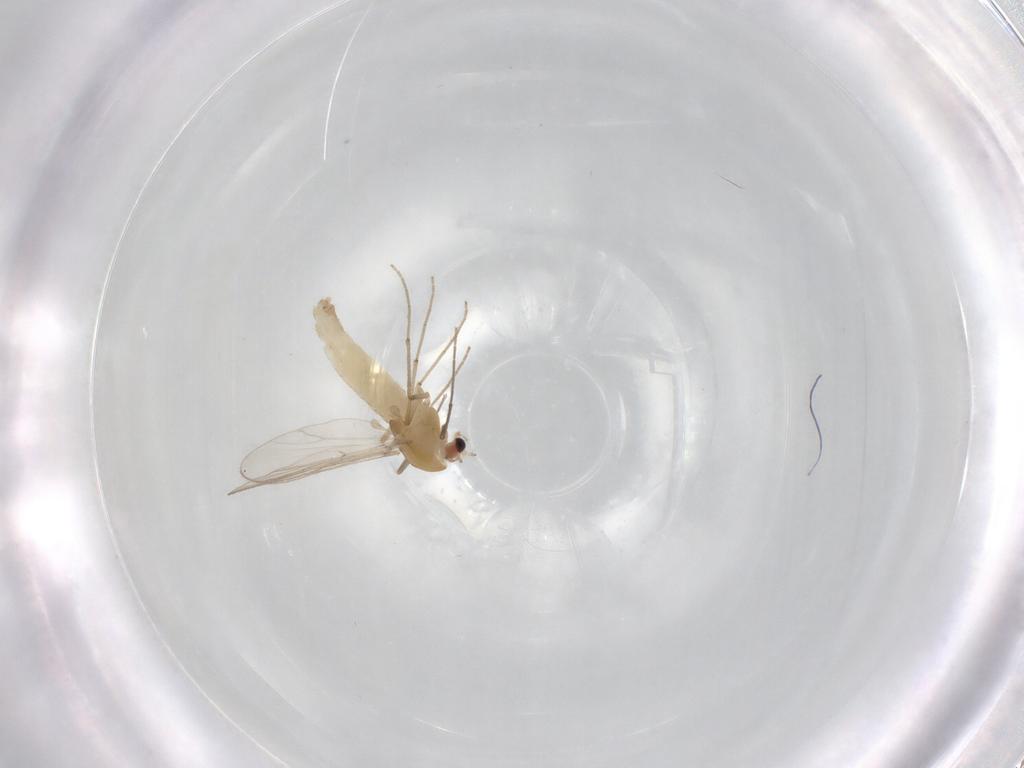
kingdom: Animalia
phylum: Arthropoda
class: Insecta
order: Diptera
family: Chironomidae
